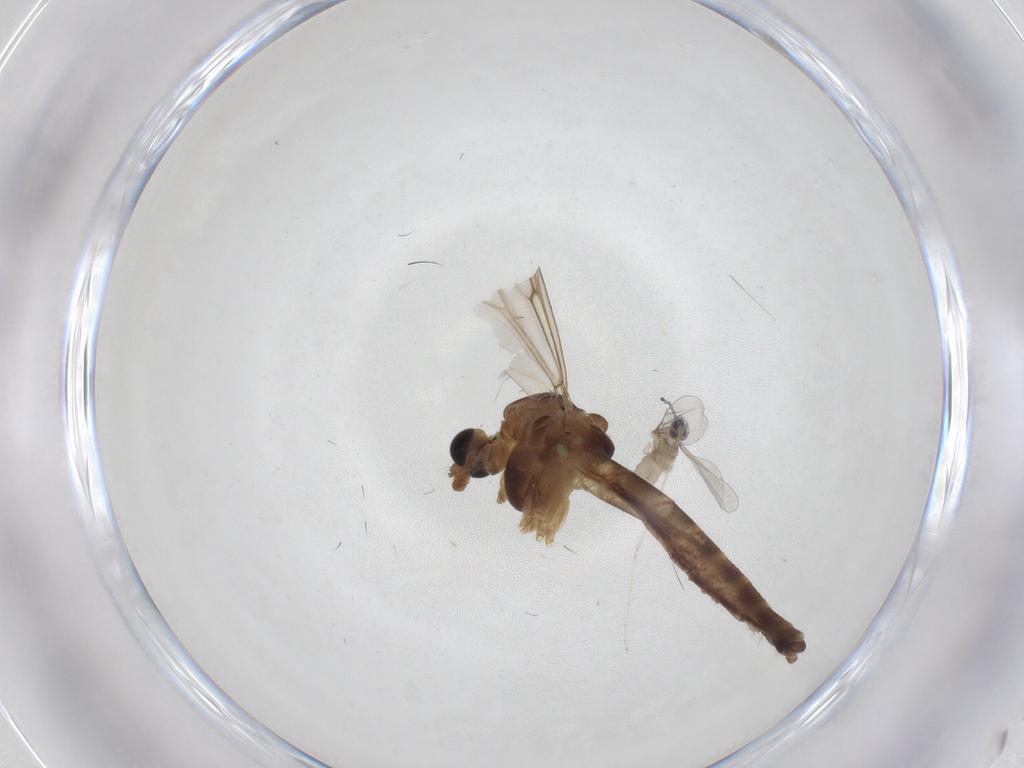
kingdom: Animalia
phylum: Arthropoda
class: Insecta
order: Diptera
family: Chironomidae
